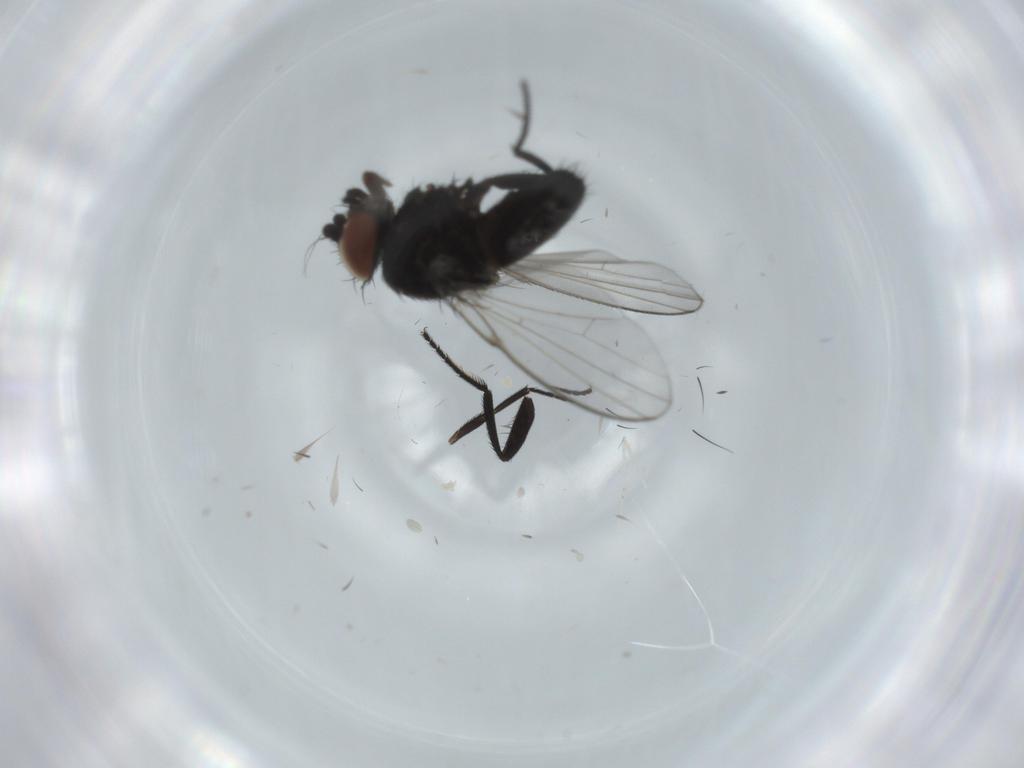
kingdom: Animalia
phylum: Arthropoda
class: Insecta
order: Diptera
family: Milichiidae
